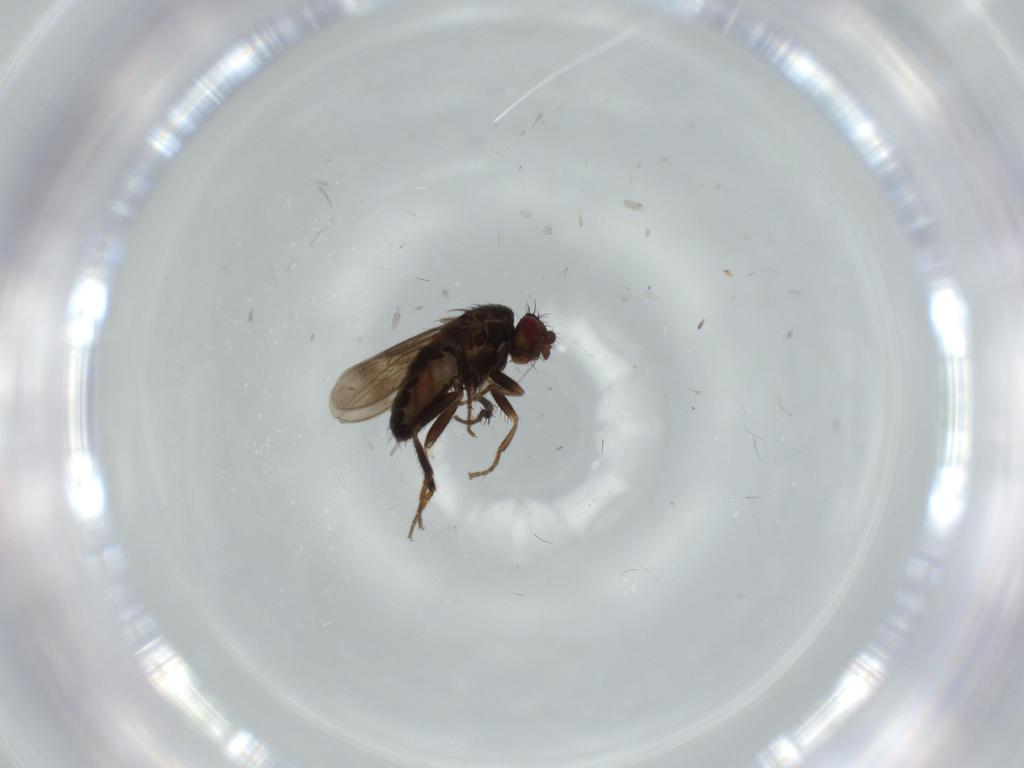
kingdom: Animalia
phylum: Arthropoda
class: Insecta
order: Diptera
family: Sphaeroceridae
